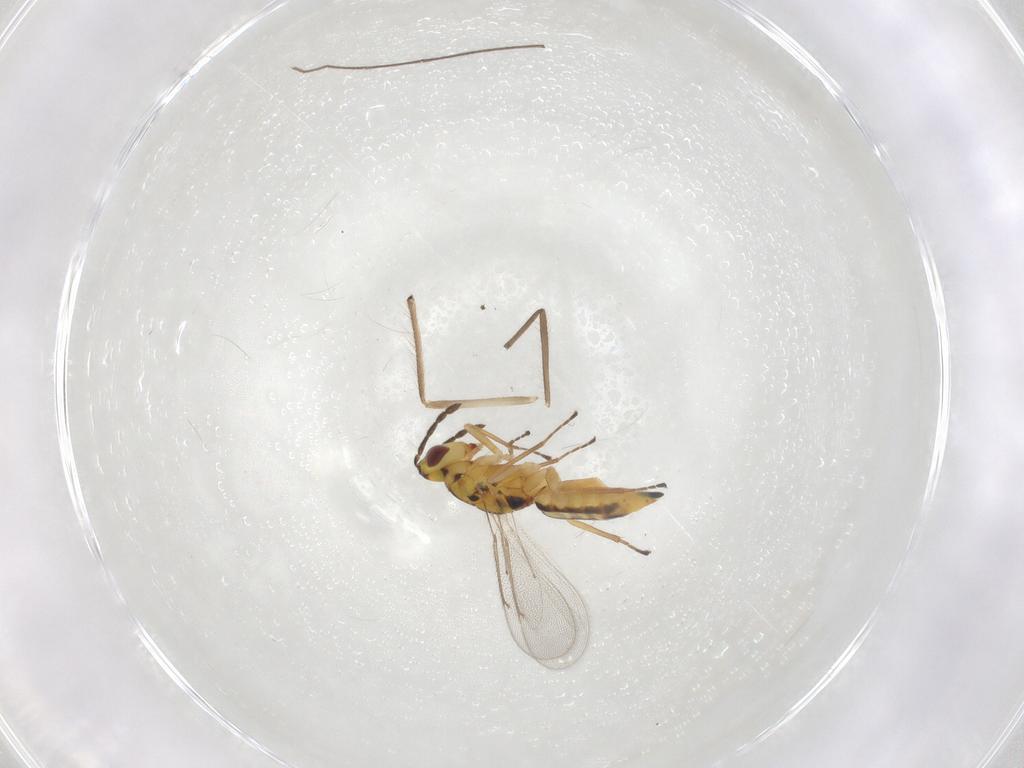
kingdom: Animalia
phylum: Arthropoda
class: Insecta
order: Hymenoptera
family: Eulophidae
